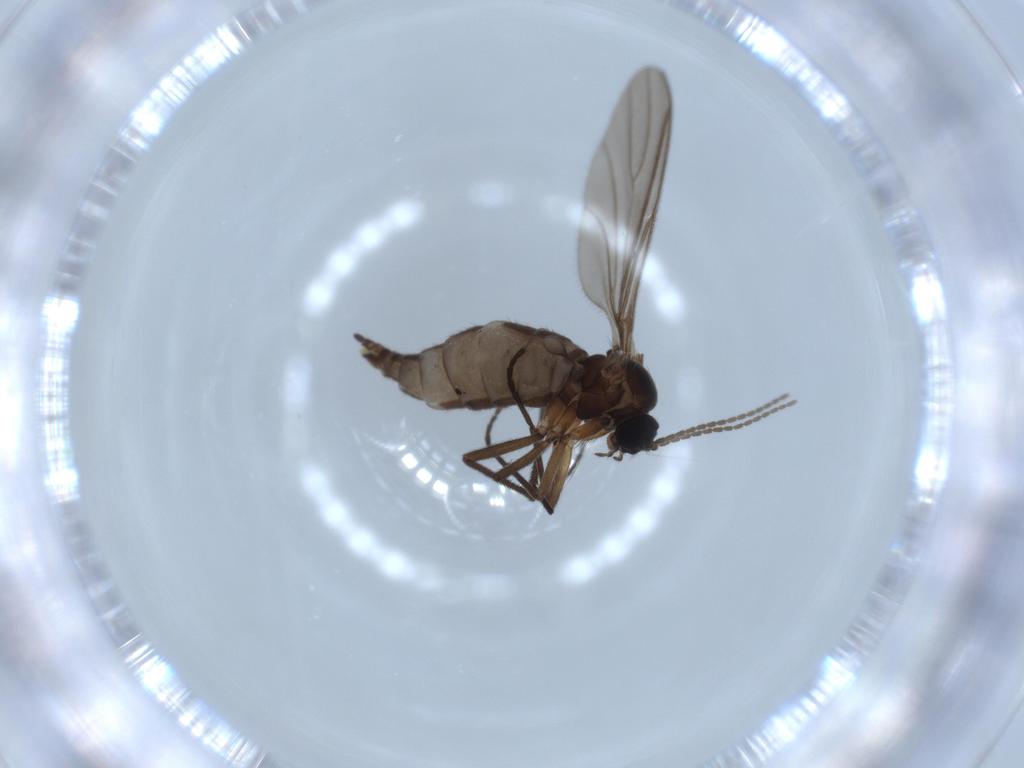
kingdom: Animalia
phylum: Arthropoda
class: Insecta
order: Diptera
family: Sciaridae
